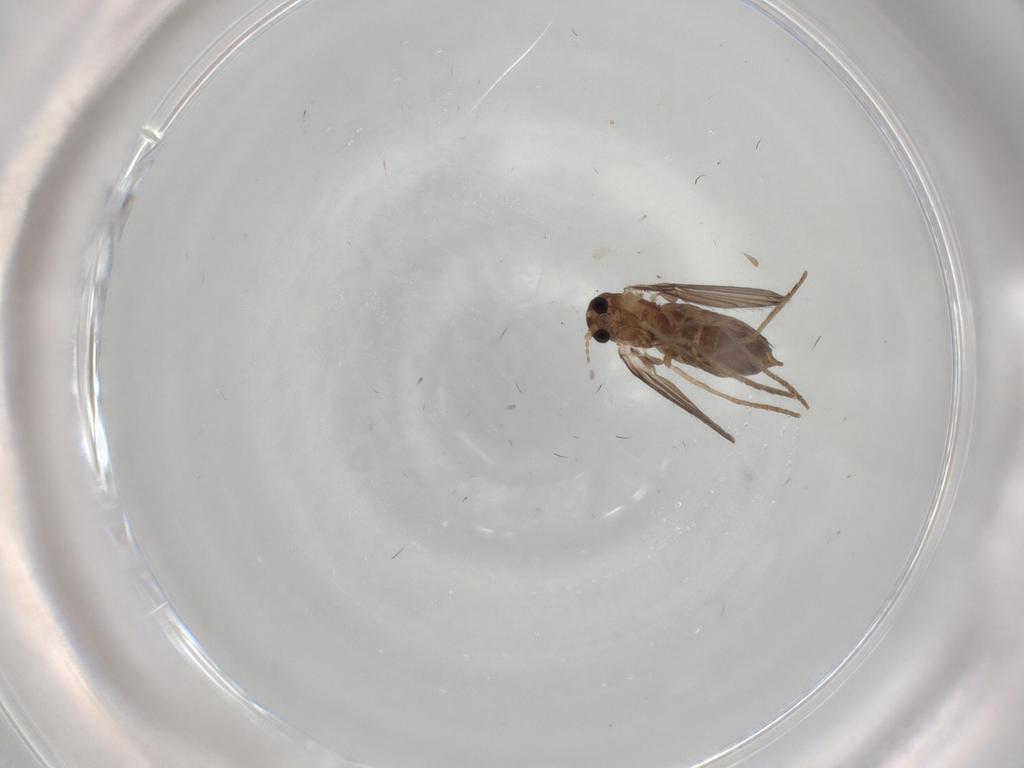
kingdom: Animalia
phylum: Arthropoda
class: Insecta
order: Diptera
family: Psychodidae
